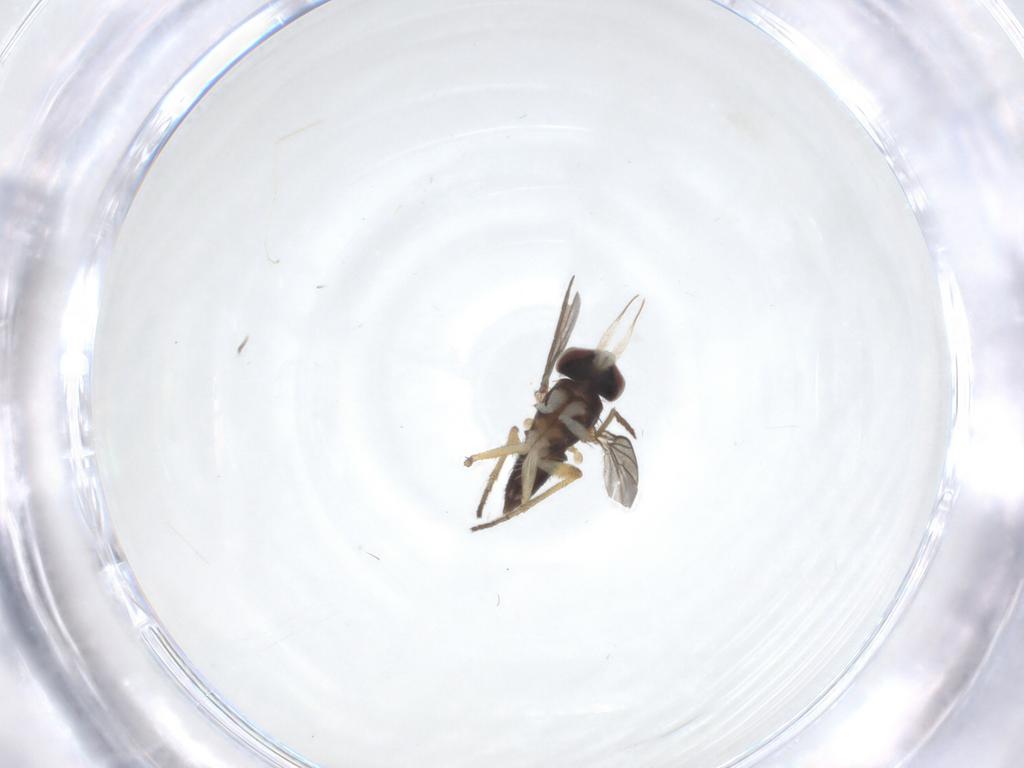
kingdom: Animalia
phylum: Arthropoda
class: Insecta
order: Diptera
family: Dolichopodidae
